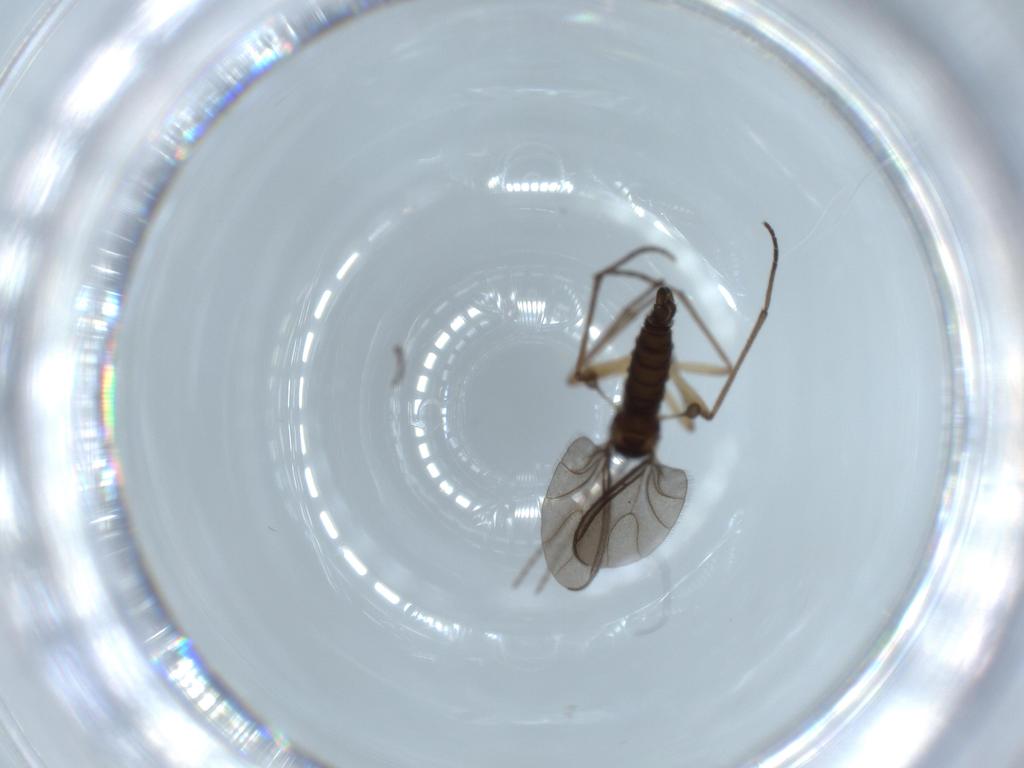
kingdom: Animalia
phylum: Arthropoda
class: Insecta
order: Diptera
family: Sciaridae
